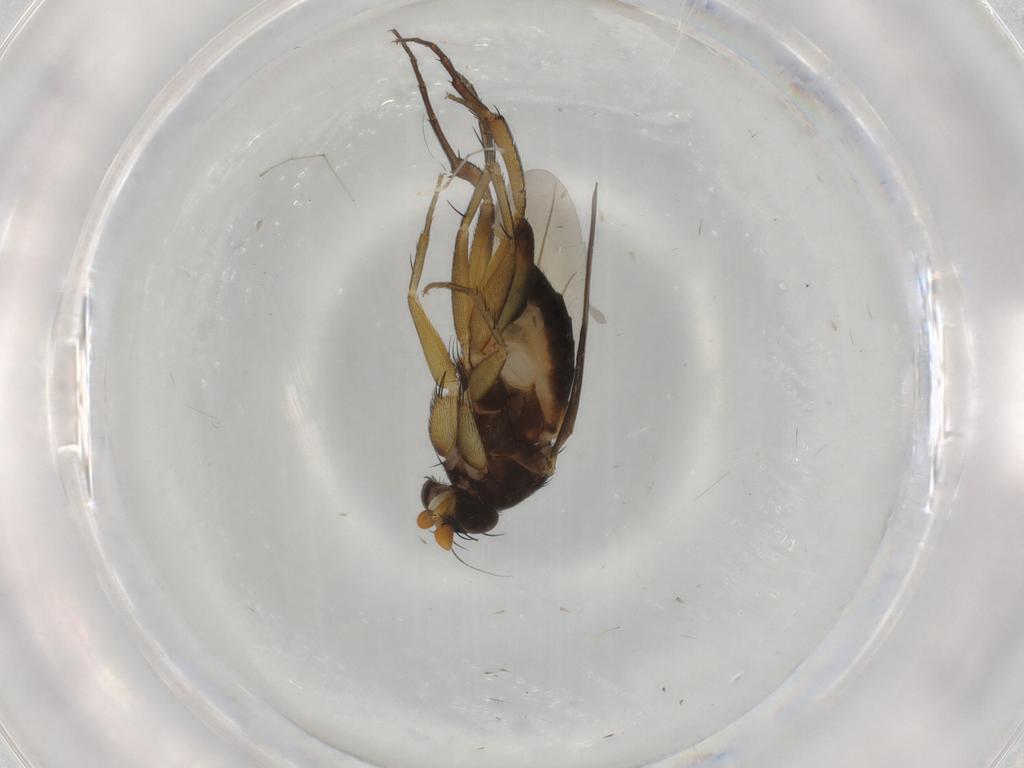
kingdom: Animalia
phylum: Arthropoda
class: Insecta
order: Diptera
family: Phoridae
